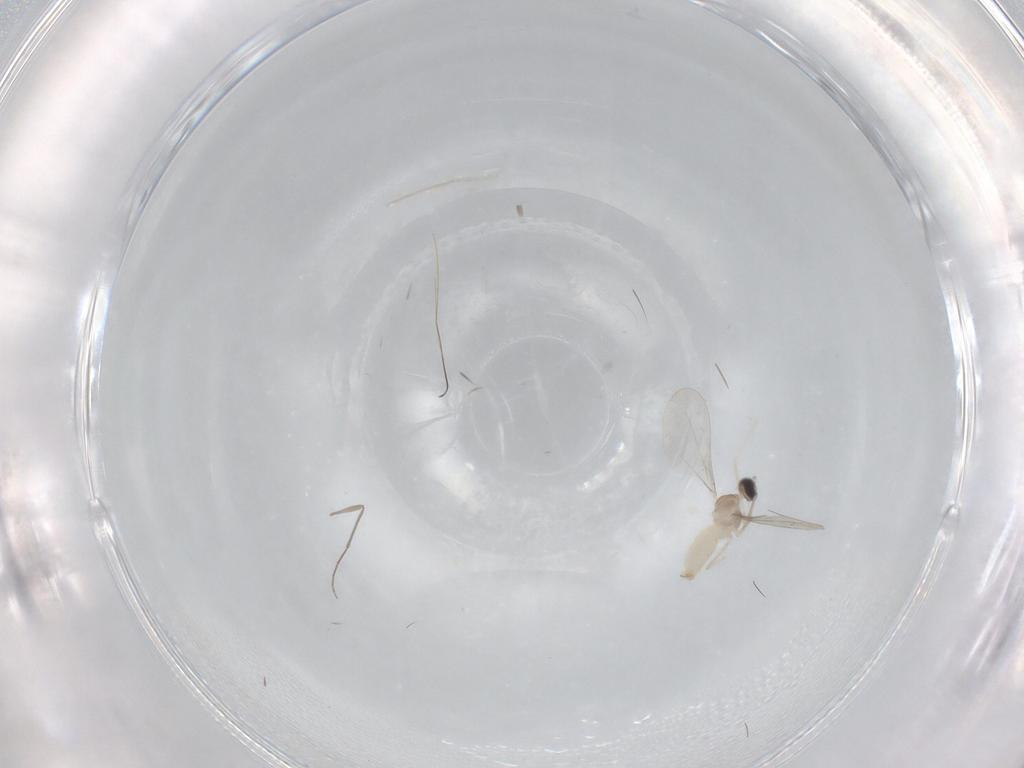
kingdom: Animalia
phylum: Arthropoda
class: Insecta
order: Diptera
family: Cecidomyiidae
